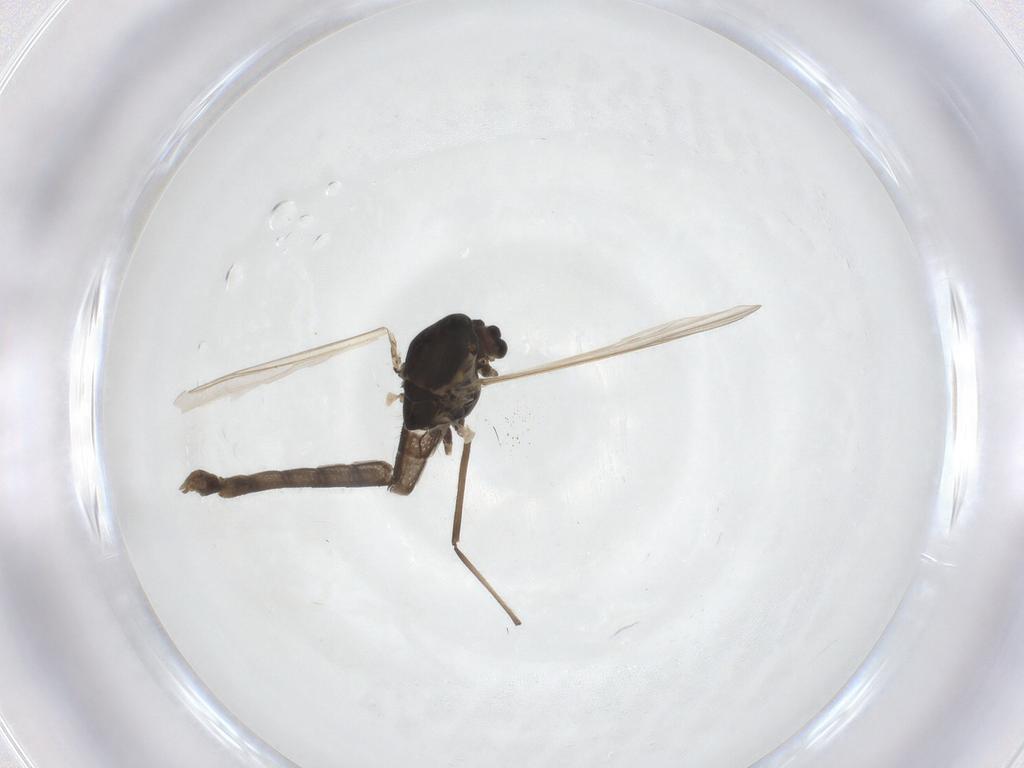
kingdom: Animalia
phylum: Arthropoda
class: Insecta
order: Diptera
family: Chironomidae
